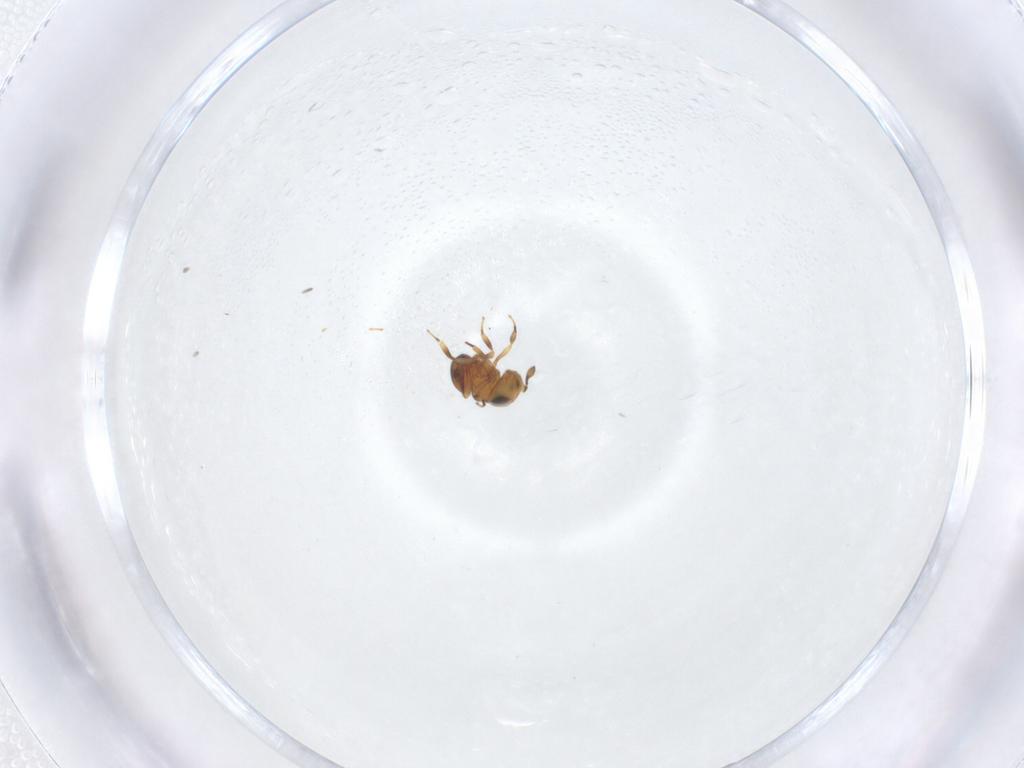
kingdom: Animalia
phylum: Arthropoda
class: Insecta
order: Hymenoptera
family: Scelionidae
